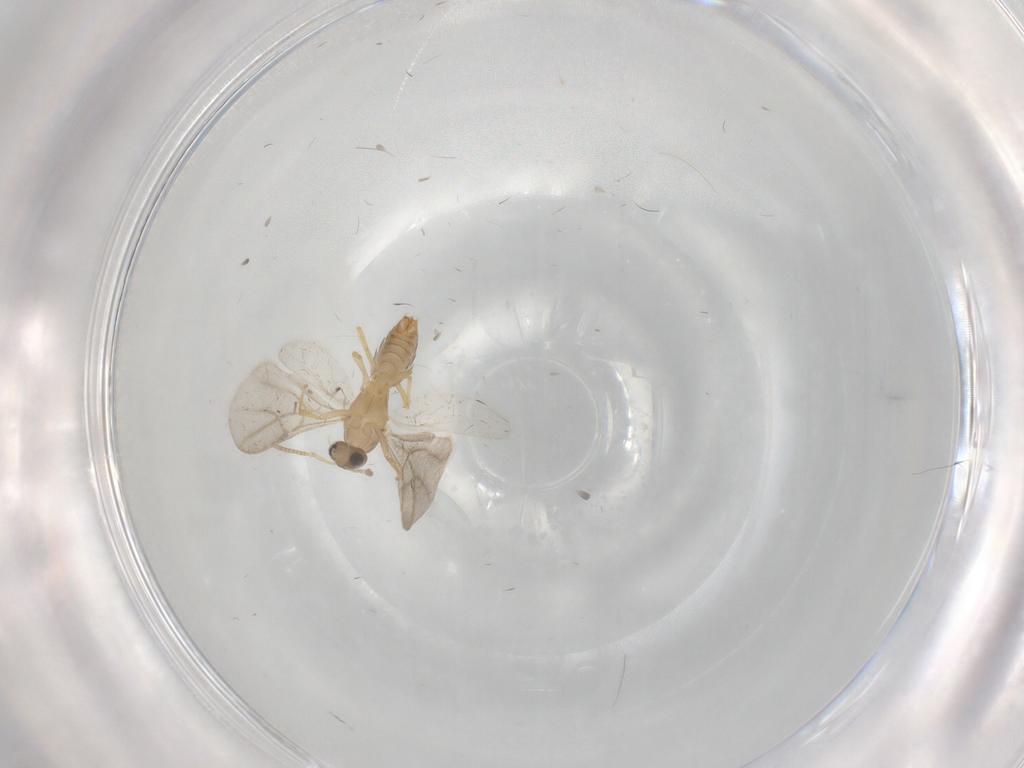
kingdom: Animalia
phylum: Arthropoda
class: Insecta
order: Hymenoptera
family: Formicidae
